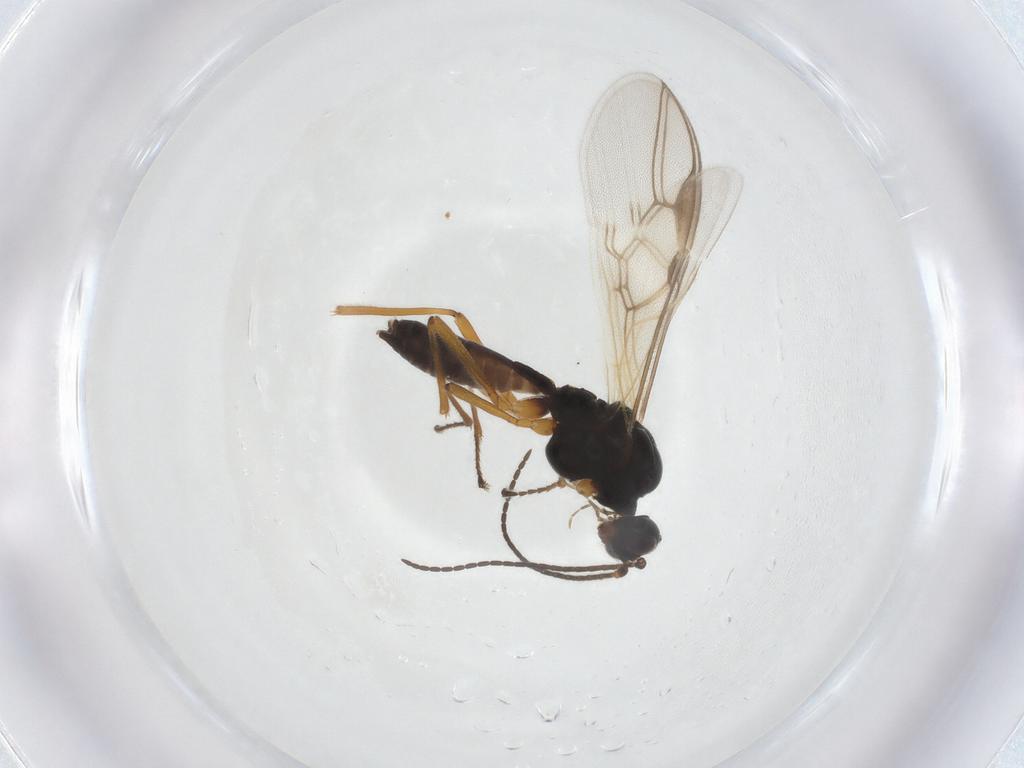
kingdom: Animalia
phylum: Arthropoda
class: Insecta
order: Hymenoptera
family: Braconidae
